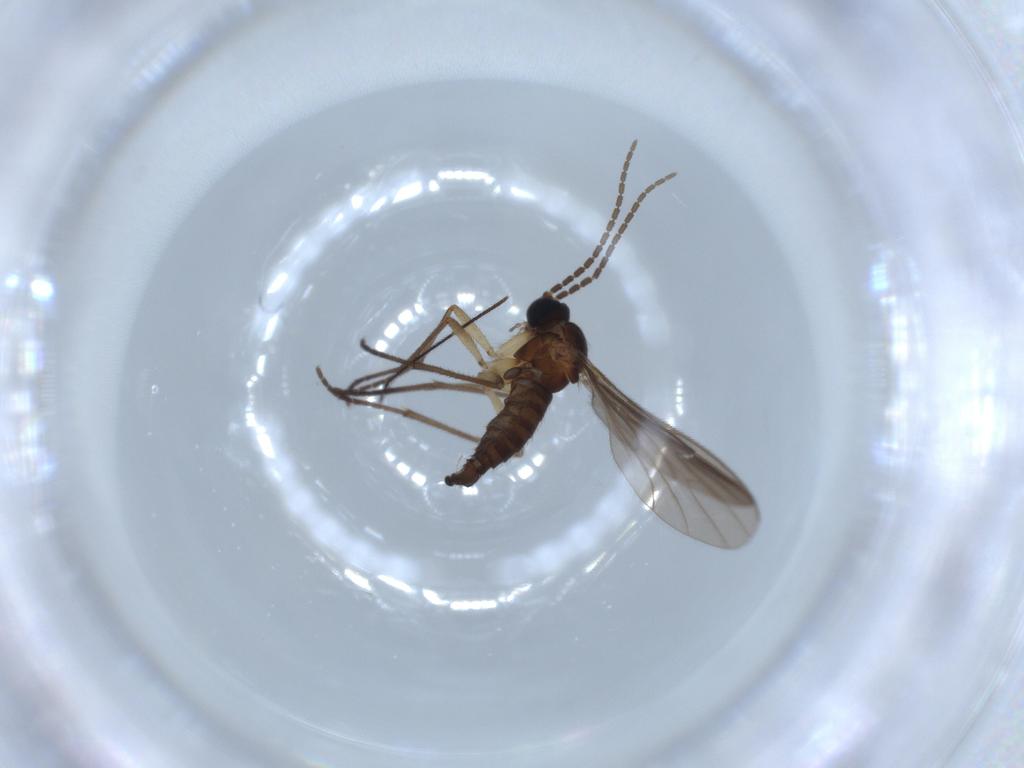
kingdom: Animalia
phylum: Arthropoda
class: Insecta
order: Diptera
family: Sciaridae
